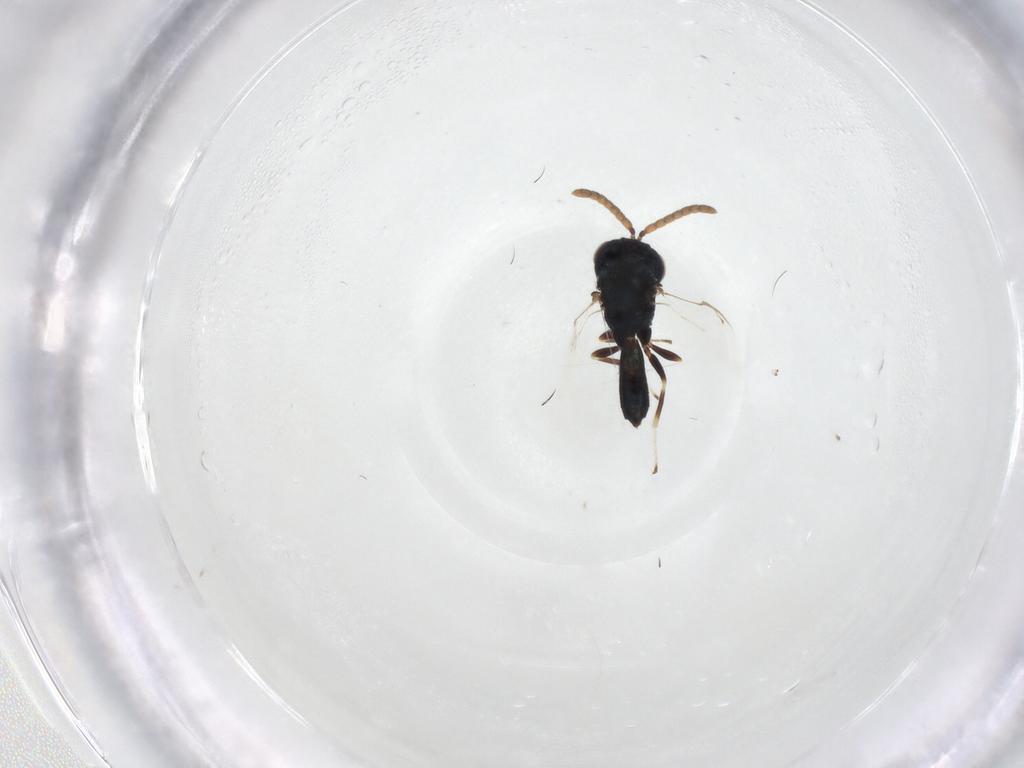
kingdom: Animalia
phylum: Arthropoda
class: Insecta
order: Hymenoptera
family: Pteromalidae
